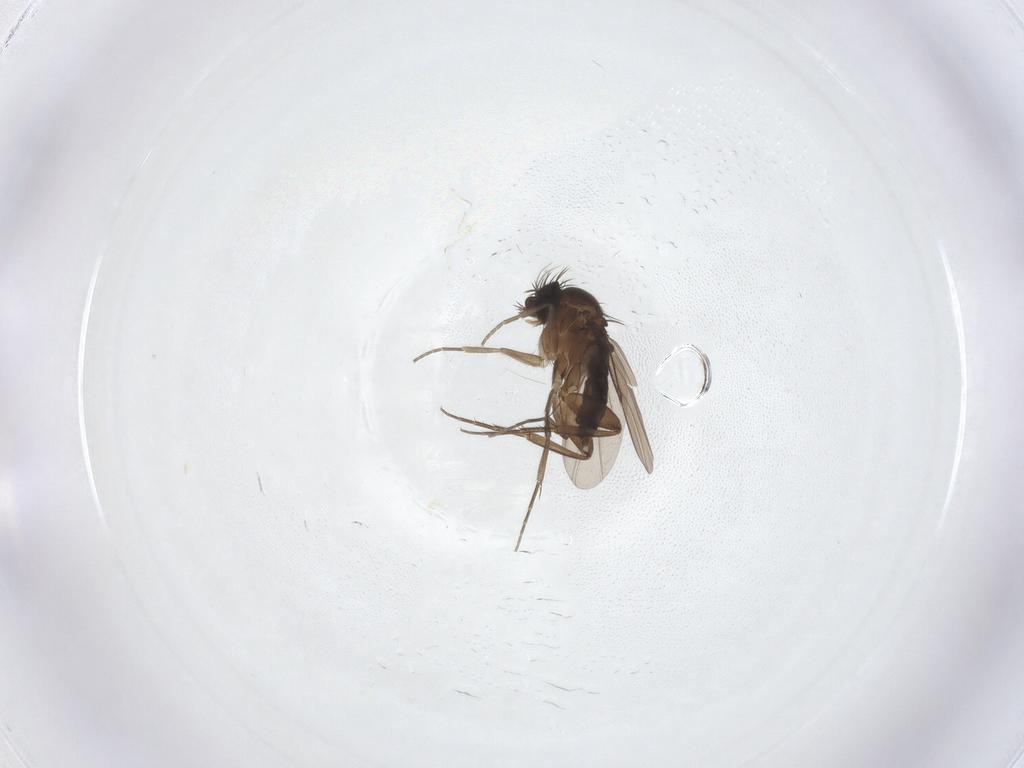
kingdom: Animalia
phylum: Arthropoda
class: Insecta
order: Diptera
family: Phoridae
